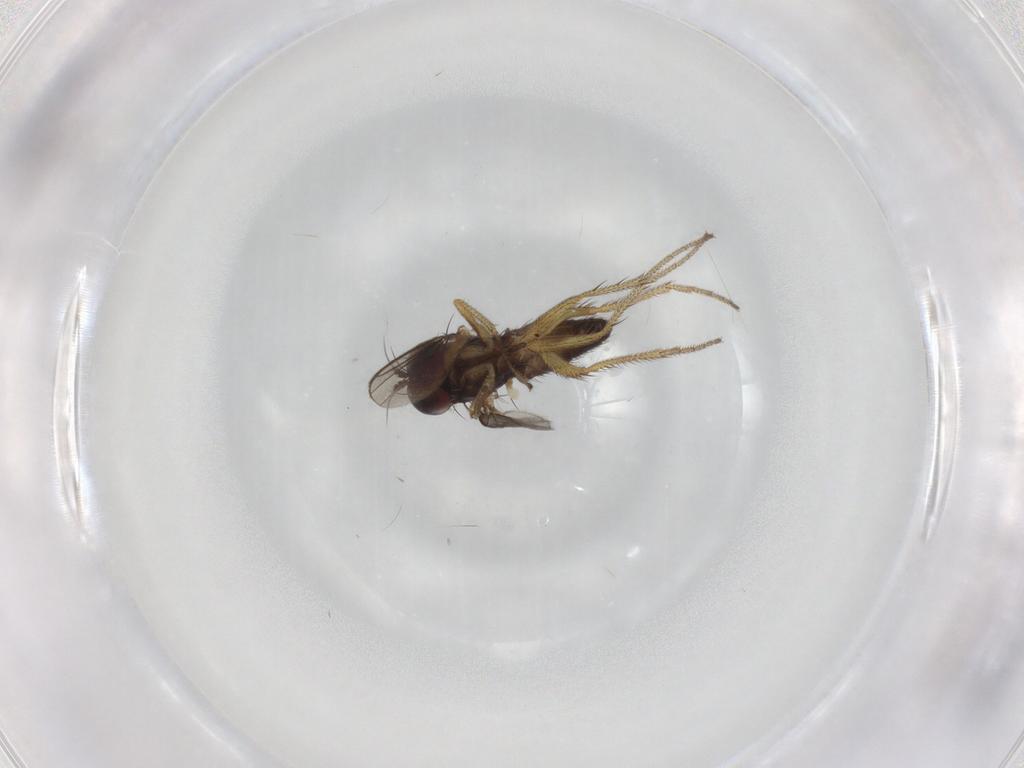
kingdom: Animalia
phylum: Arthropoda
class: Insecta
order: Diptera
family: Dolichopodidae
